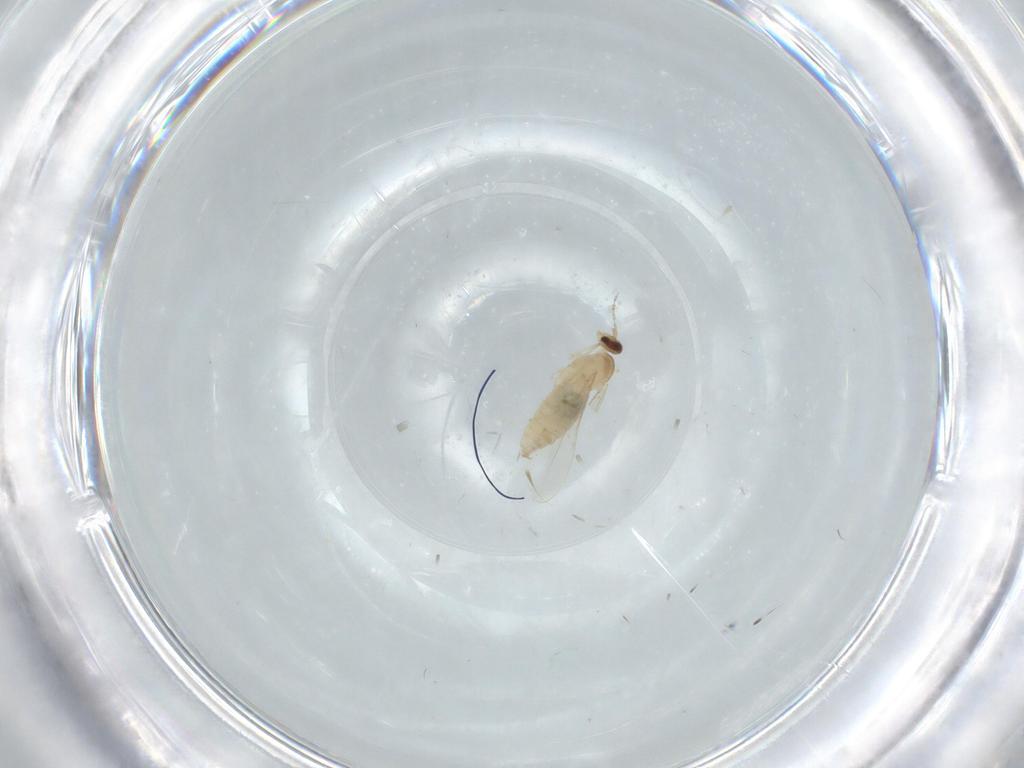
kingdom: Animalia
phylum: Arthropoda
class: Insecta
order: Diptera
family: Cecidomyiidae
